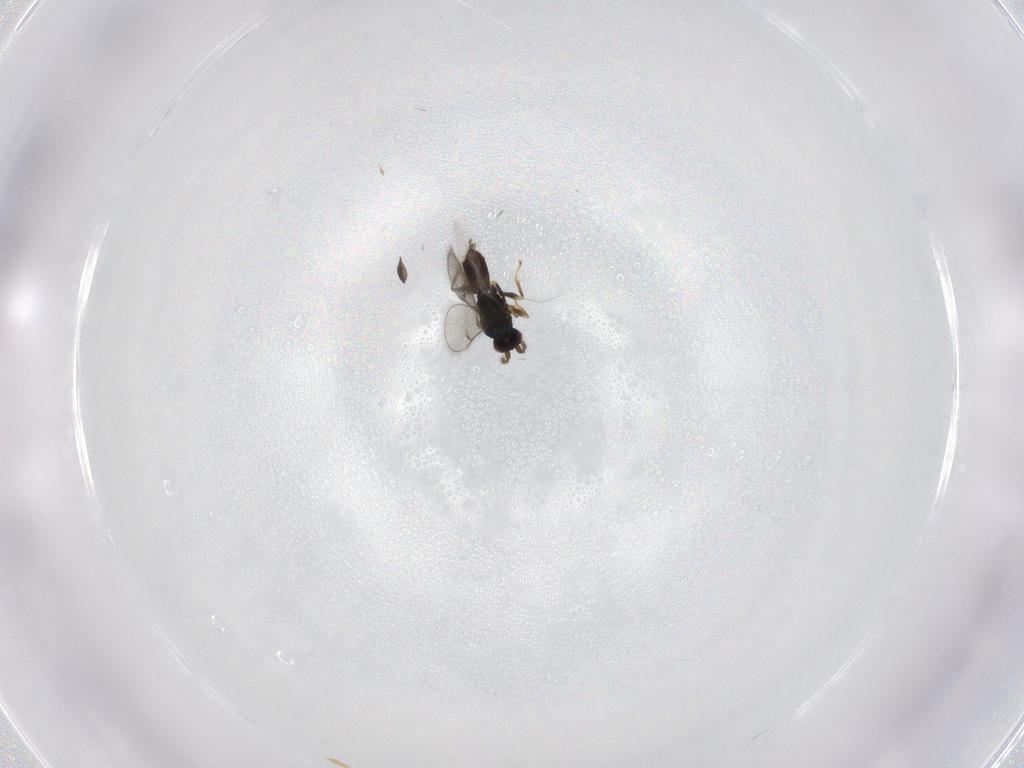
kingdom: Animalia
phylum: Arthropoda
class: Insecta
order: Hymenoptera
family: Eulophidae
